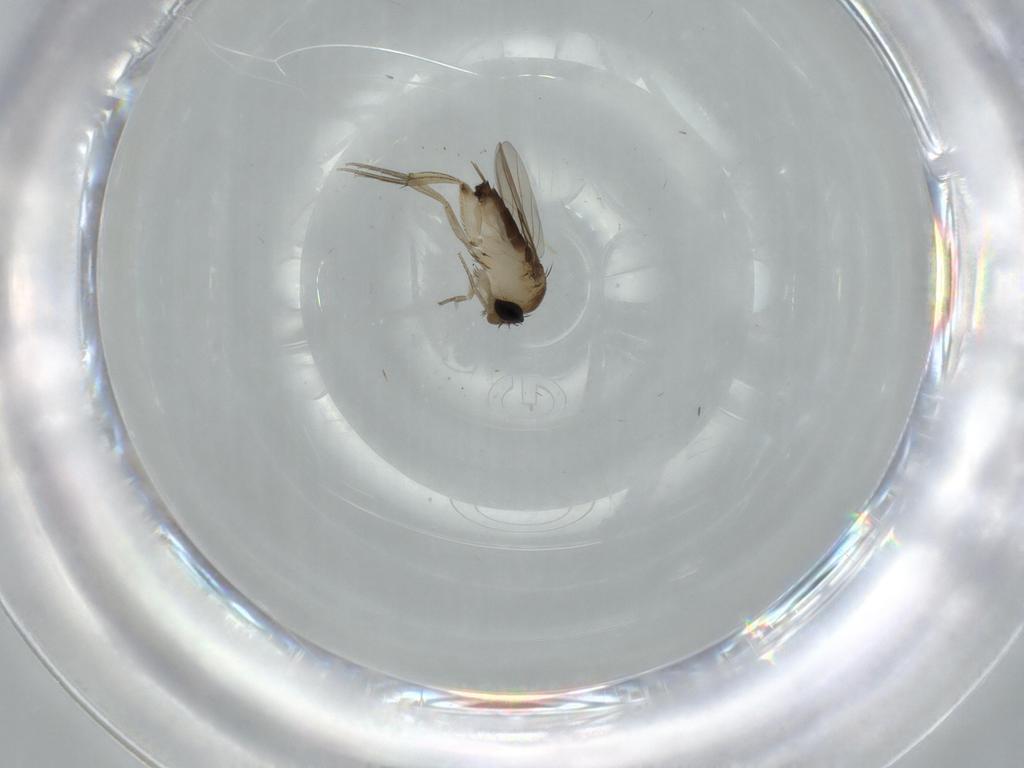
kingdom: Animalia
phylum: Arthropoda
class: Insecta
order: Diptera
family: Phoridae
